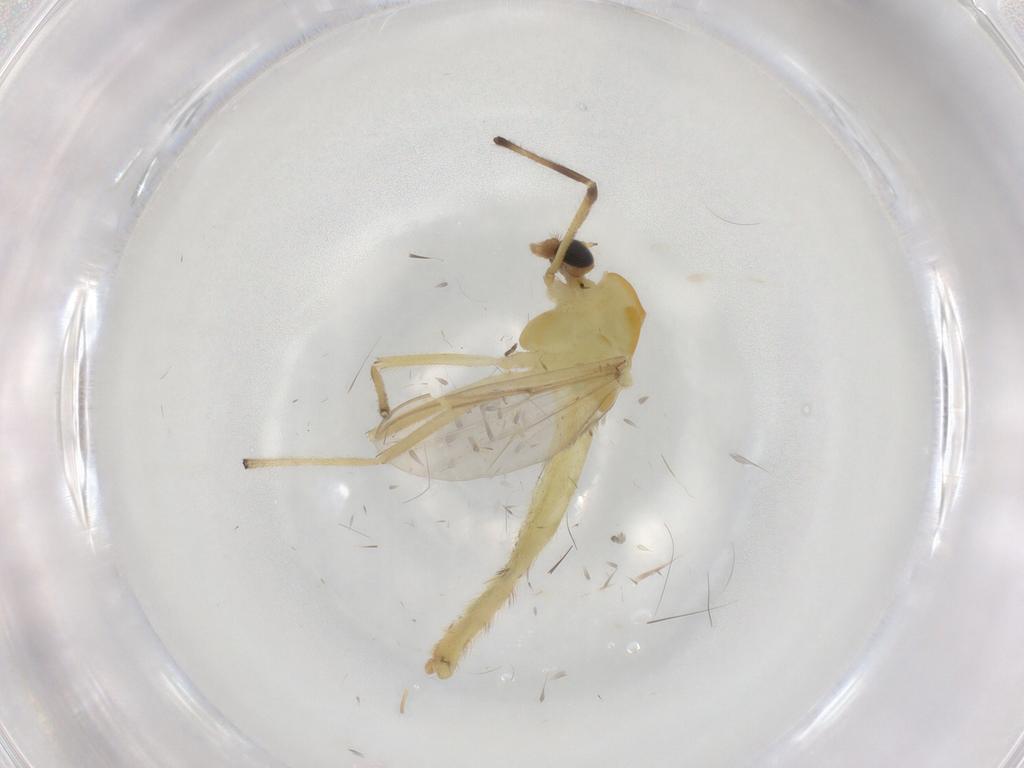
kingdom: Animalia
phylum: Arthropoda
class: Insecta
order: Diptera
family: Chironomidae
